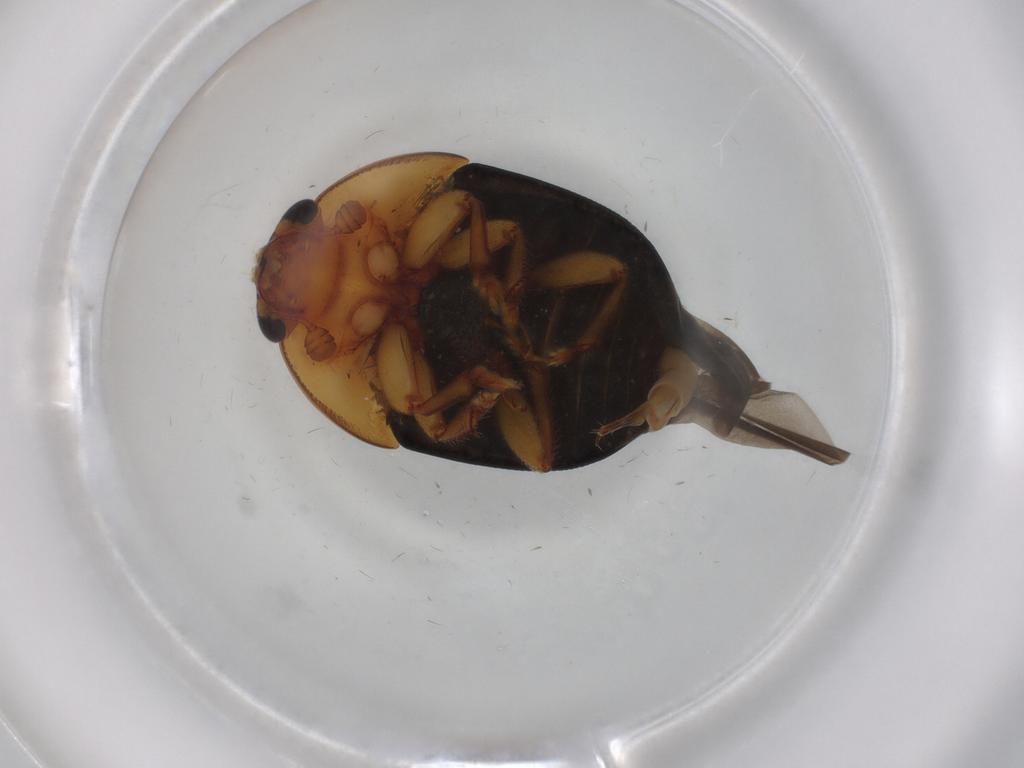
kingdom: Animalia
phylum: Arthropoda
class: Insecta
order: Coleoptera
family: Nitidulidae
